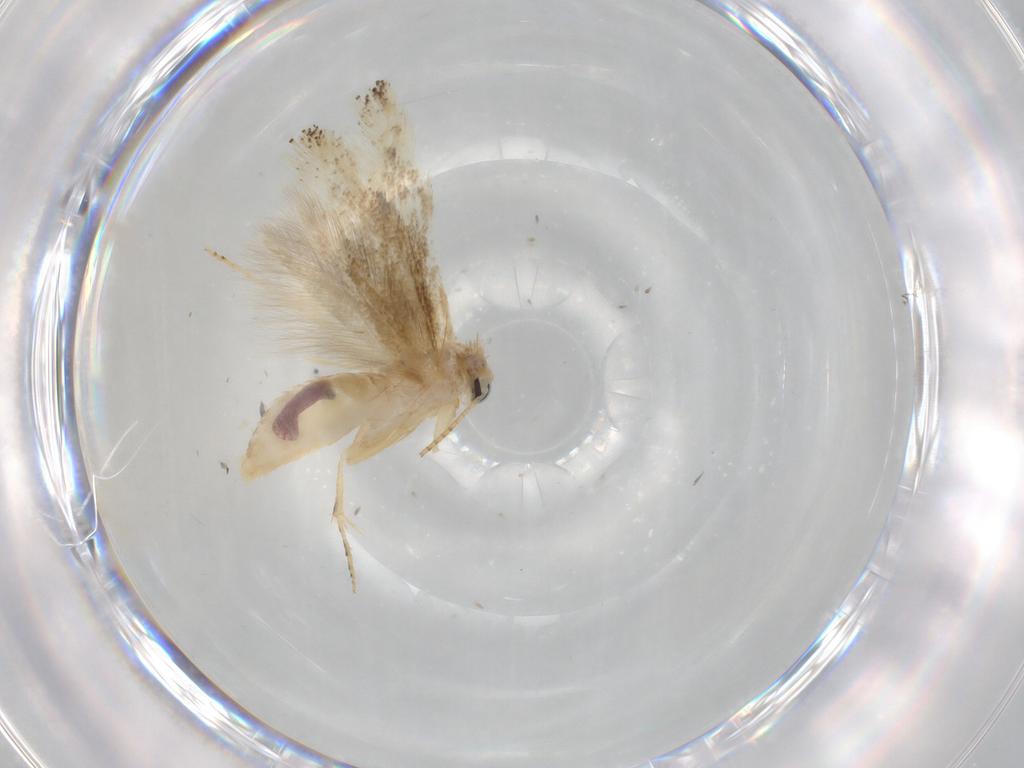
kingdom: Animalia
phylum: Arthropoda
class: Insecta
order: Lepidoptera
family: Bucculatricidae
